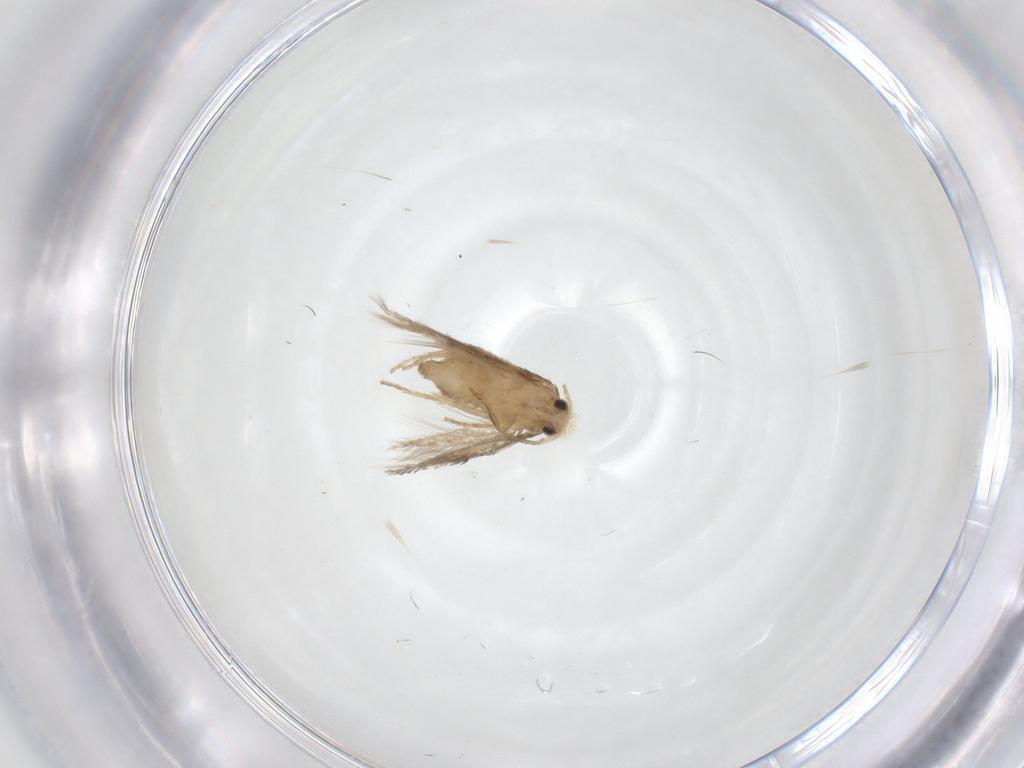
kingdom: Animalia
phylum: Arthropoda
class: Insecta
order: Lepidoptera
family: Nepticulidae
